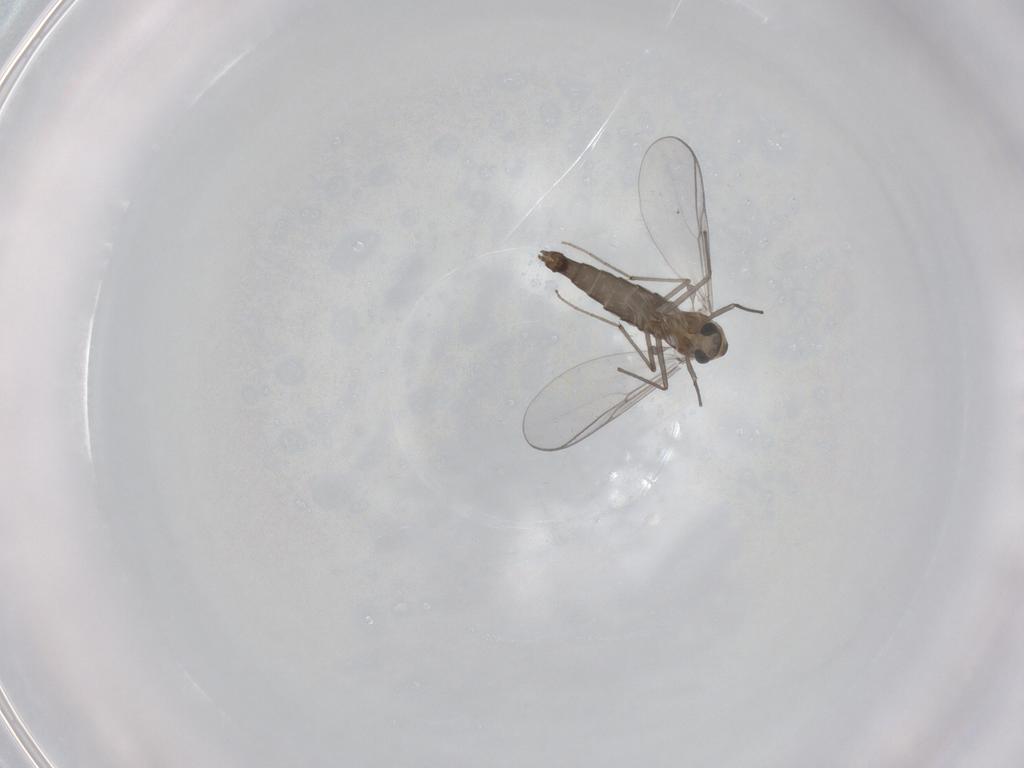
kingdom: Animalia
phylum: Arthropoda
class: Insecta
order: Diptera
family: Chironomidae
